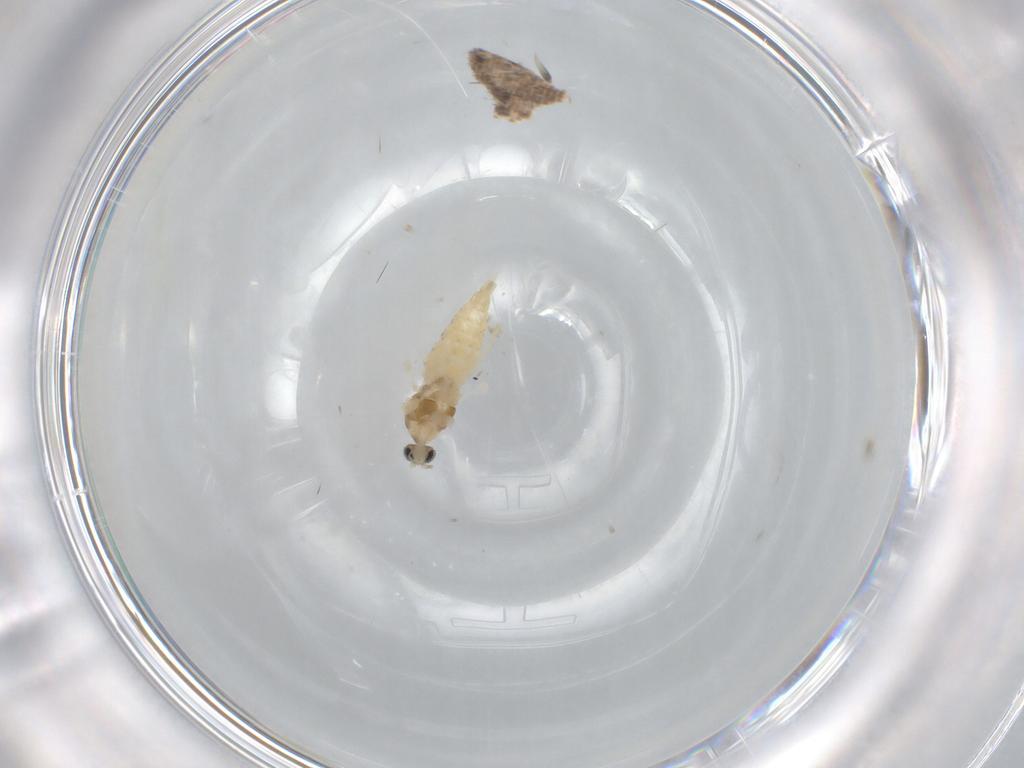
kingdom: Animalia
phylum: Arthropoda
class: Insecta
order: Diptera
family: Cecidomyiidae
